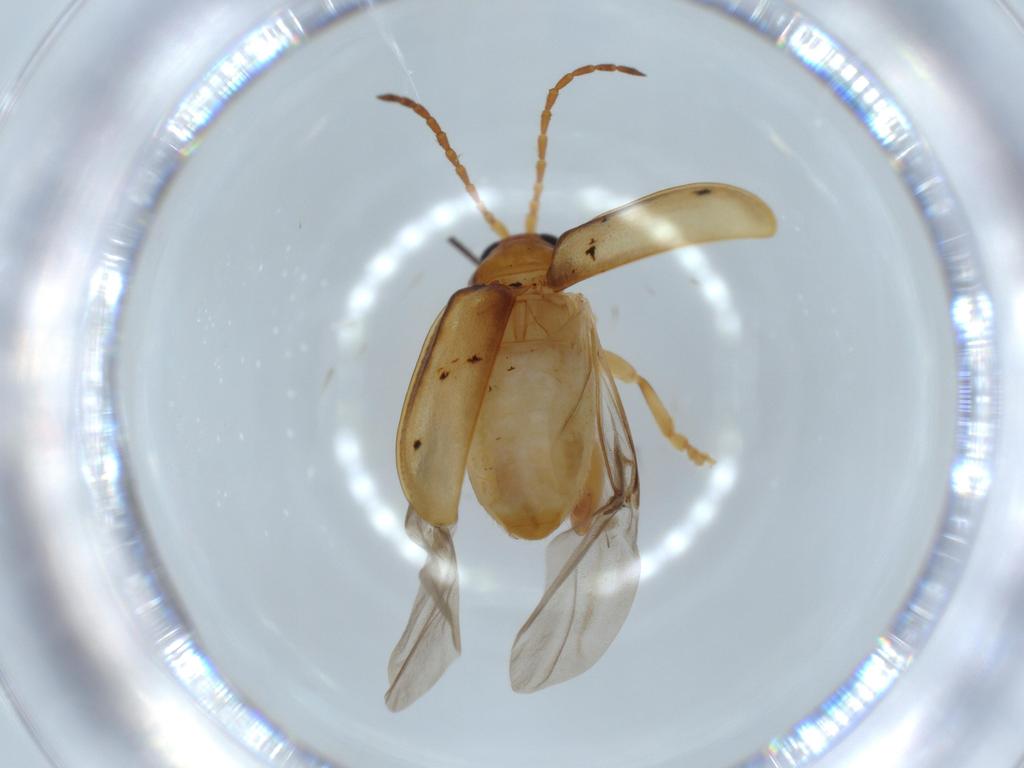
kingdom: Animalia
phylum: Arthropoda
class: Insecta
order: Coleoptera
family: Chrysomelidae
